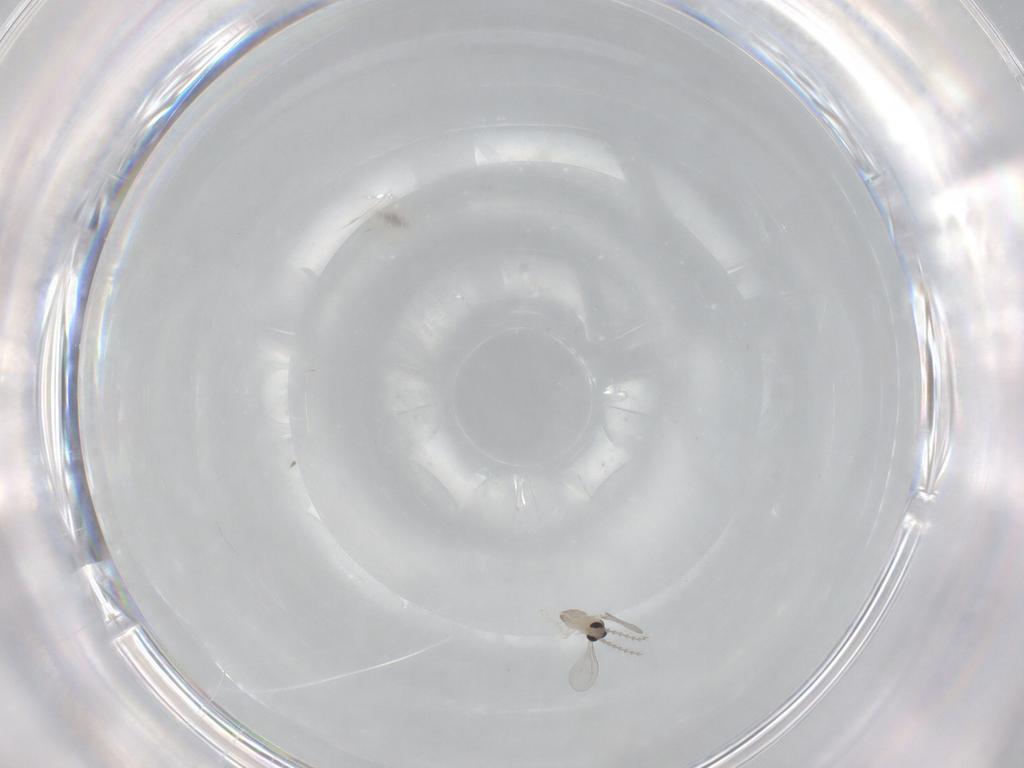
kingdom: Animalia
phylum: Arthropoda
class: Insecta
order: Diptera
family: Cecidomyiidae
